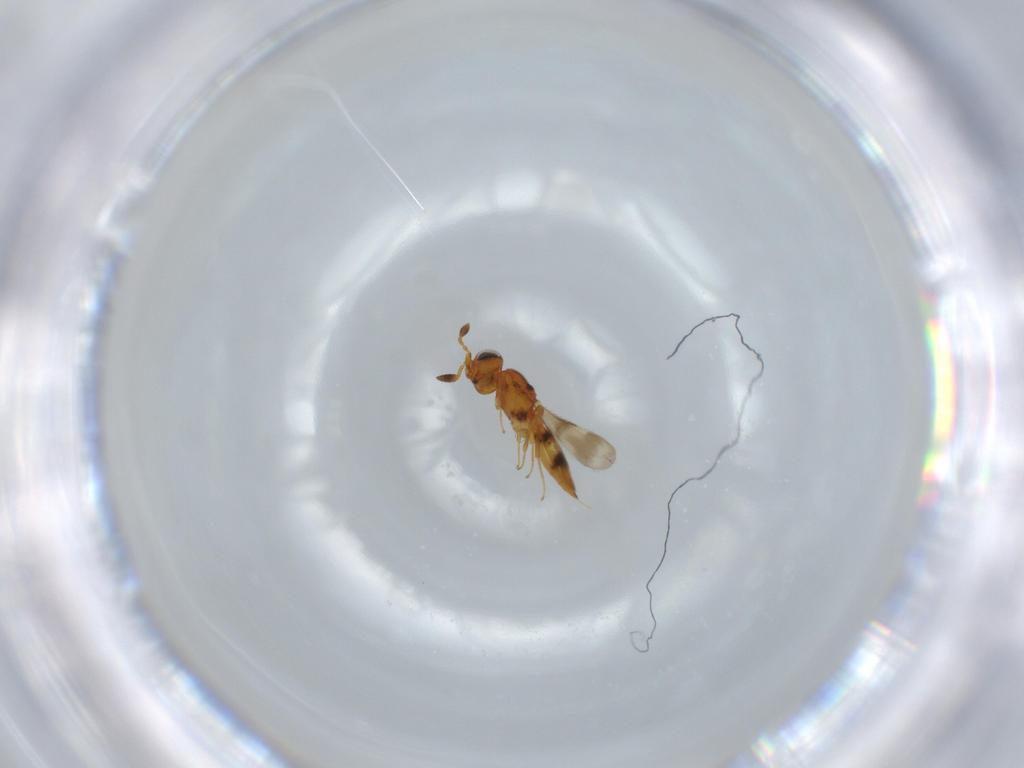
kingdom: Animalia
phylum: Arthropoda
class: Insecta
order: Hymenoptera
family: Scelionidae
